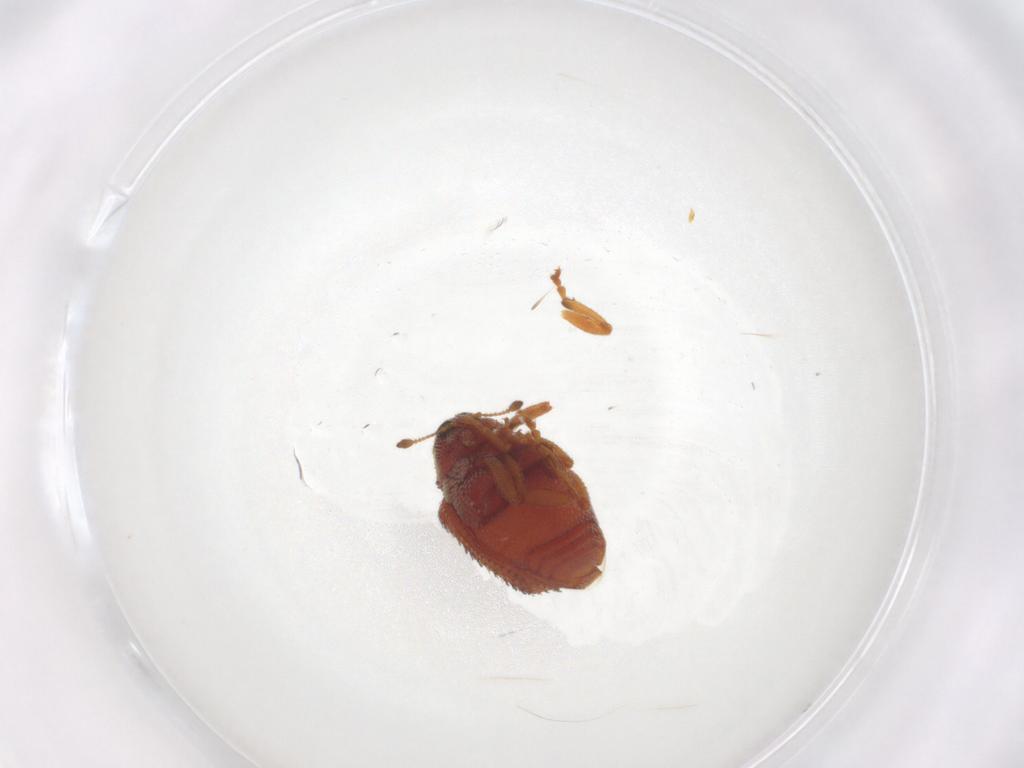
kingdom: Animalia
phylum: Arthropoda
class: Insecta
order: Coleoptera
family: Curculionidae
